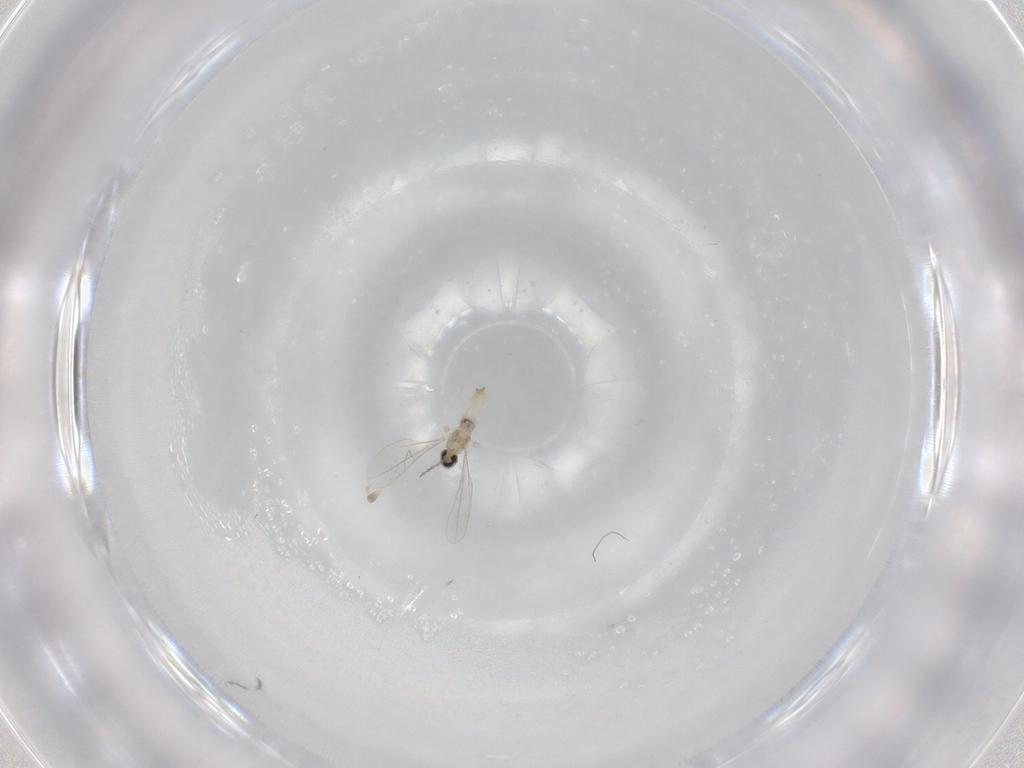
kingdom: Animalia
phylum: Arthropoda
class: Insecta
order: Diptera
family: Tabanidae
